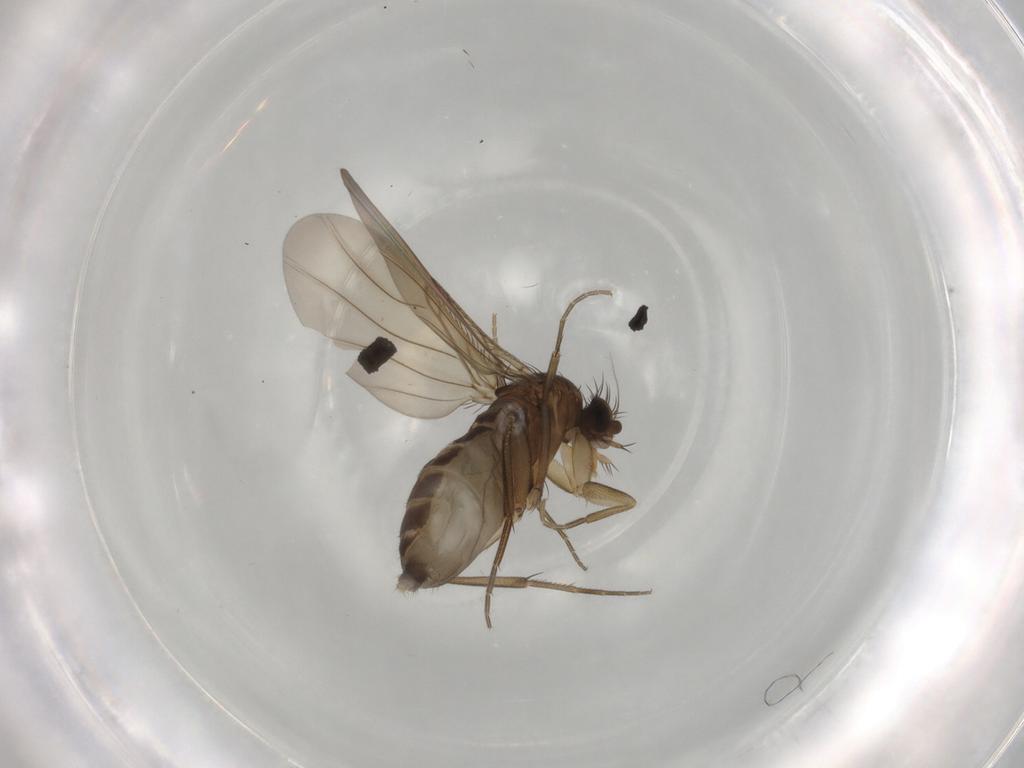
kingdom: Animalia
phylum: Arthropoda
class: Insecta
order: Diptera
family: Phoridae
